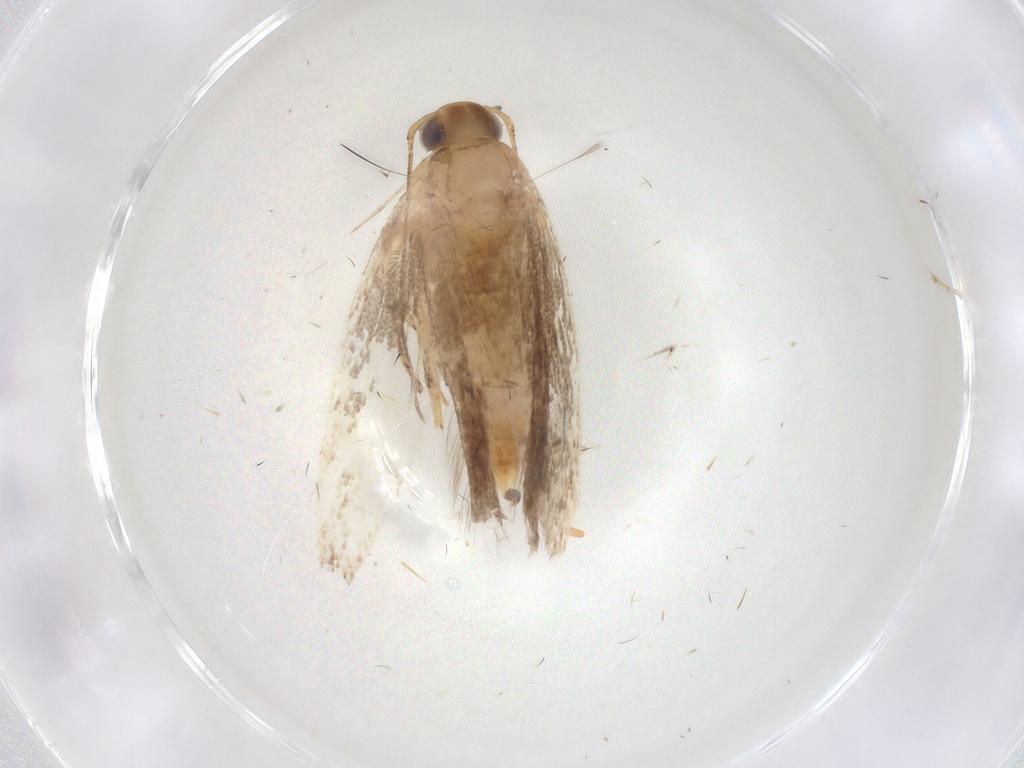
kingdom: Animalia
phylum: Arthropoda
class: Insecta
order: Lepidoptera
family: Gelechiidae
